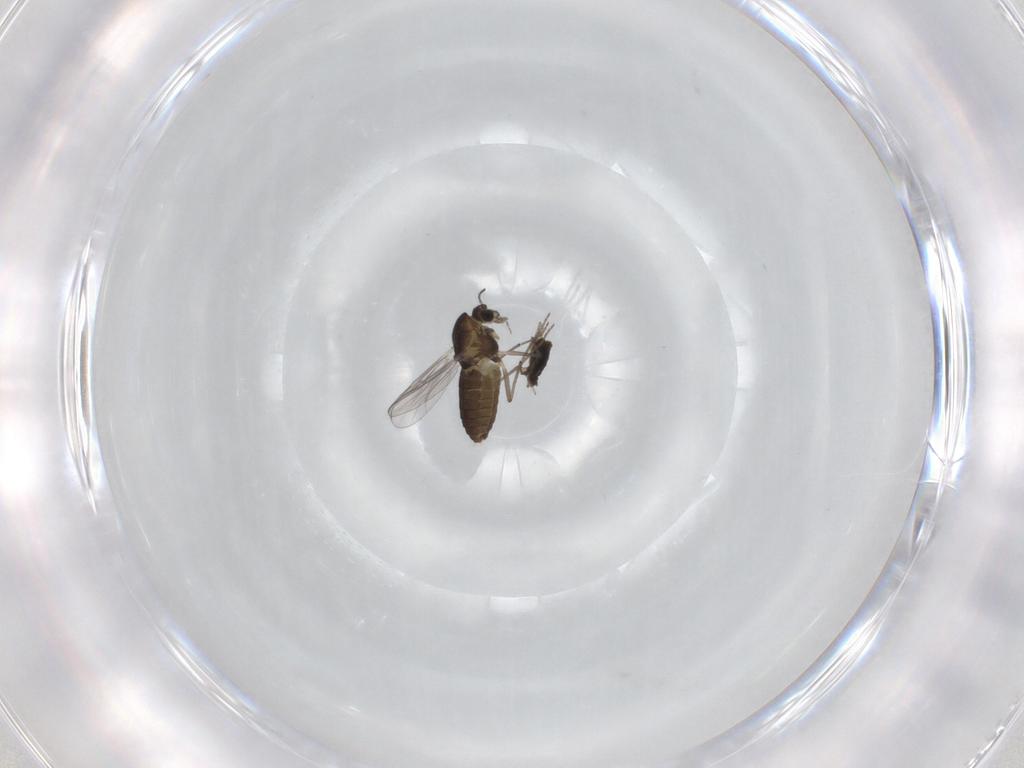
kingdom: Animalia
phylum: Arthropoda
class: Insecta
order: Diptera
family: Chironomidae
